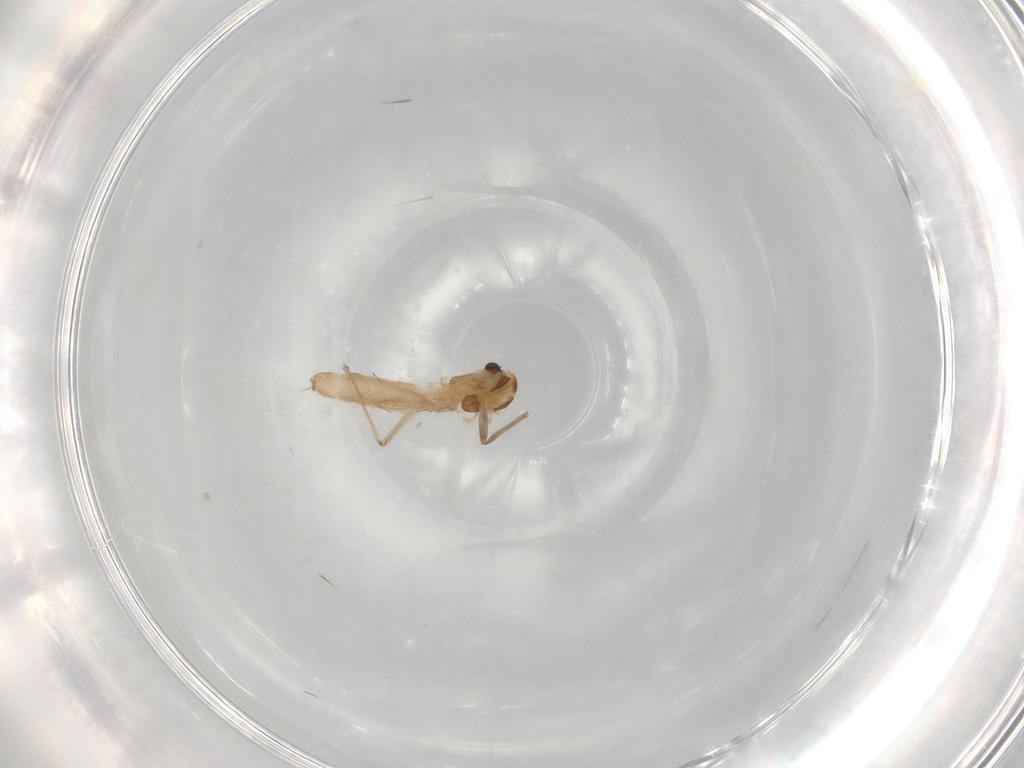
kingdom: Animalia
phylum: Arthropoda
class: Insecta
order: Diptera
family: Chironomidae
